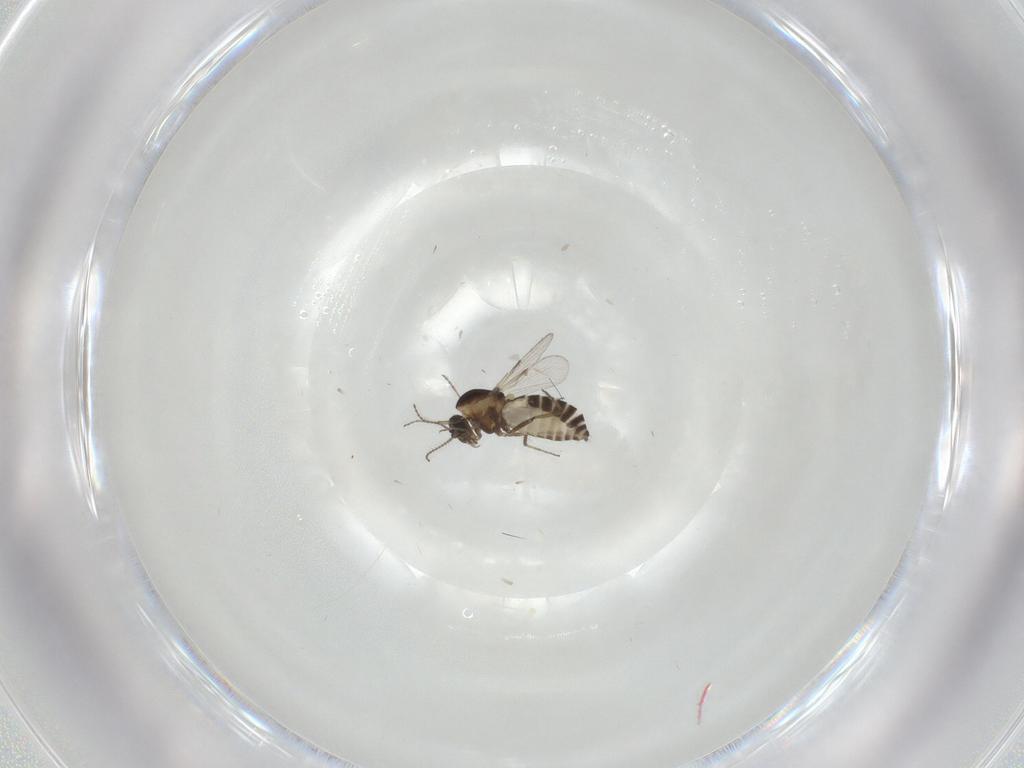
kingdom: Animalia
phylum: Arthropoda
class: Insecta
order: Diptera
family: Ceratopogonidae
